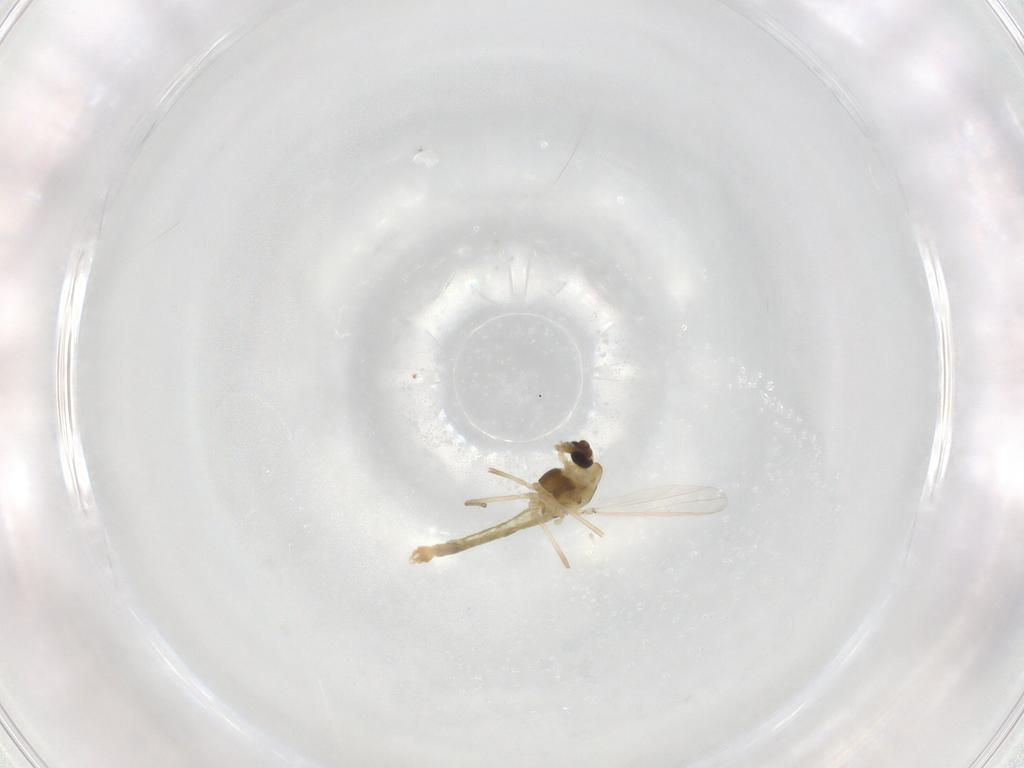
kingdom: Animalia
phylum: Arthropoda
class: Insecta
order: Diptera
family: Chironomidae
